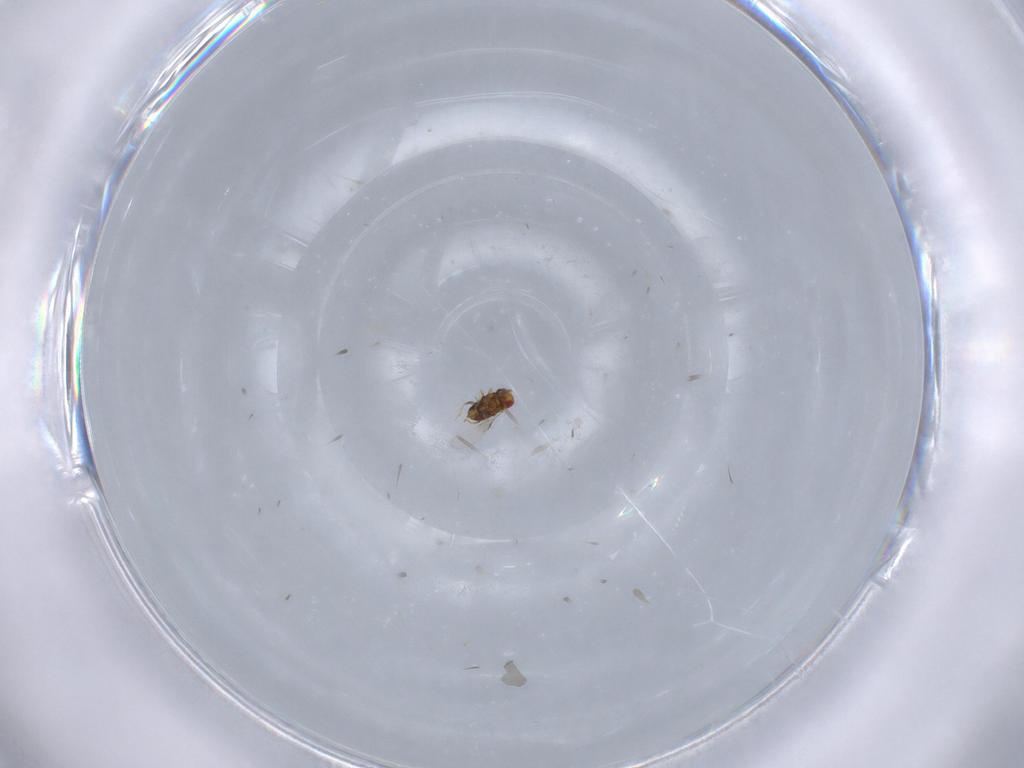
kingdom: Animalia
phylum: Arthropoda
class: Insecta
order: Hymenoptera
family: Trichogrammatidae
